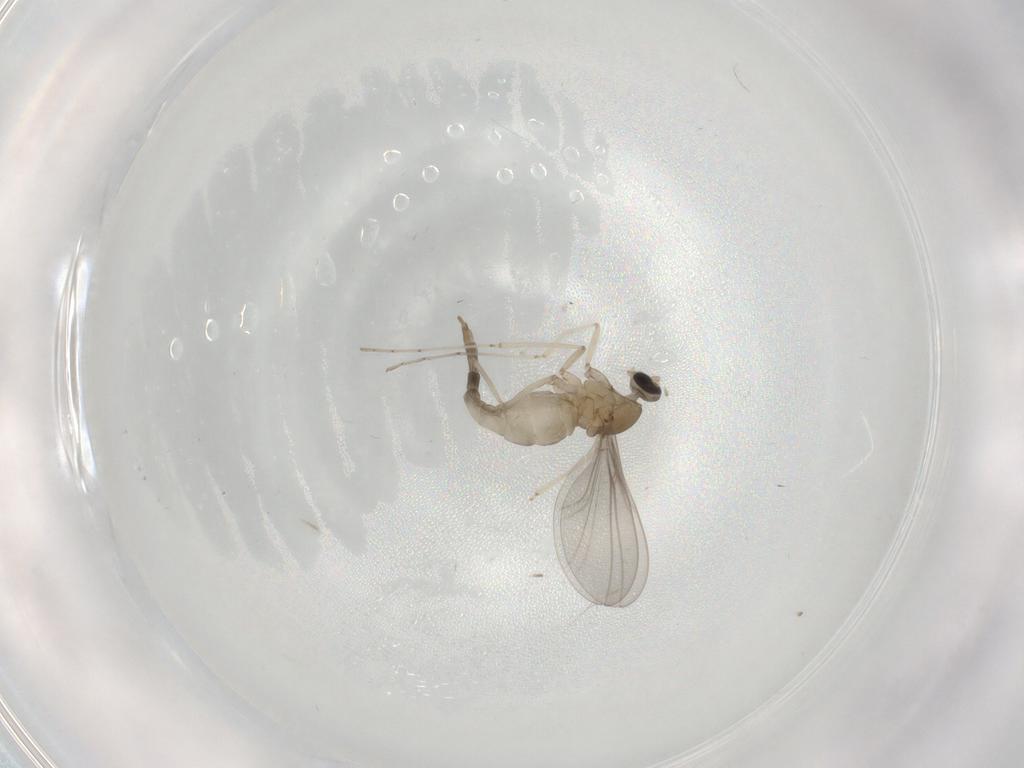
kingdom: Animalia
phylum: Arthropoda
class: Insecta
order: Diptera
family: Cecidomyiidae
